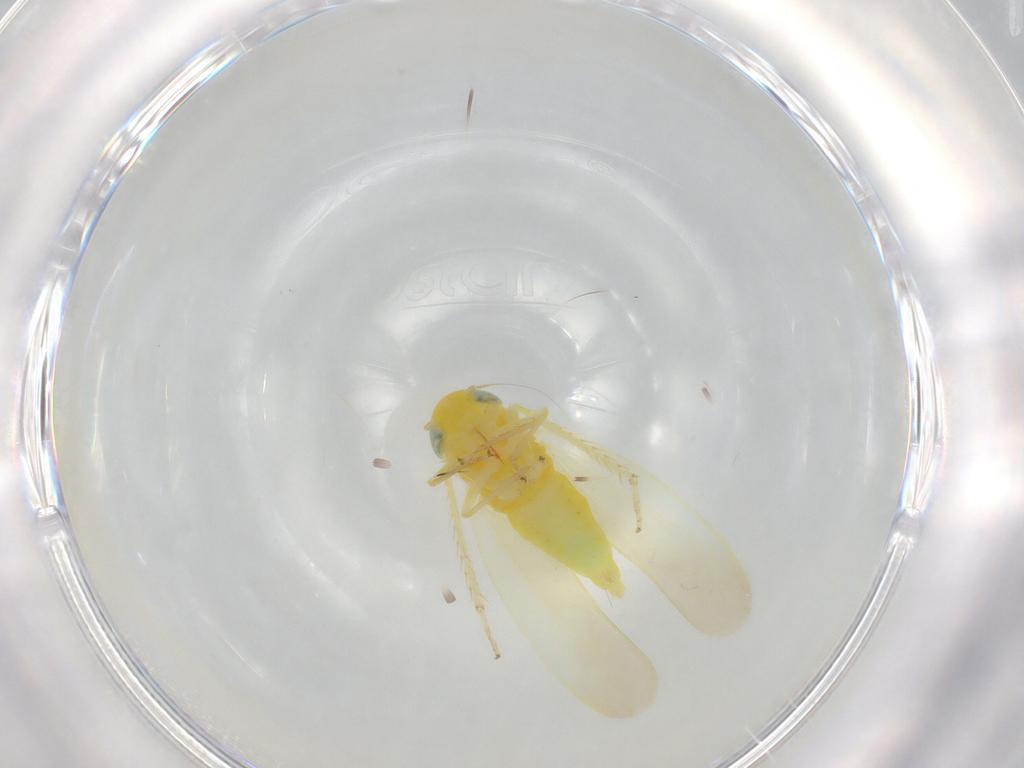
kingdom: Animalia
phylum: Arthropoda
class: Insecta
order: Hemiptera
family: Cicadellidae
